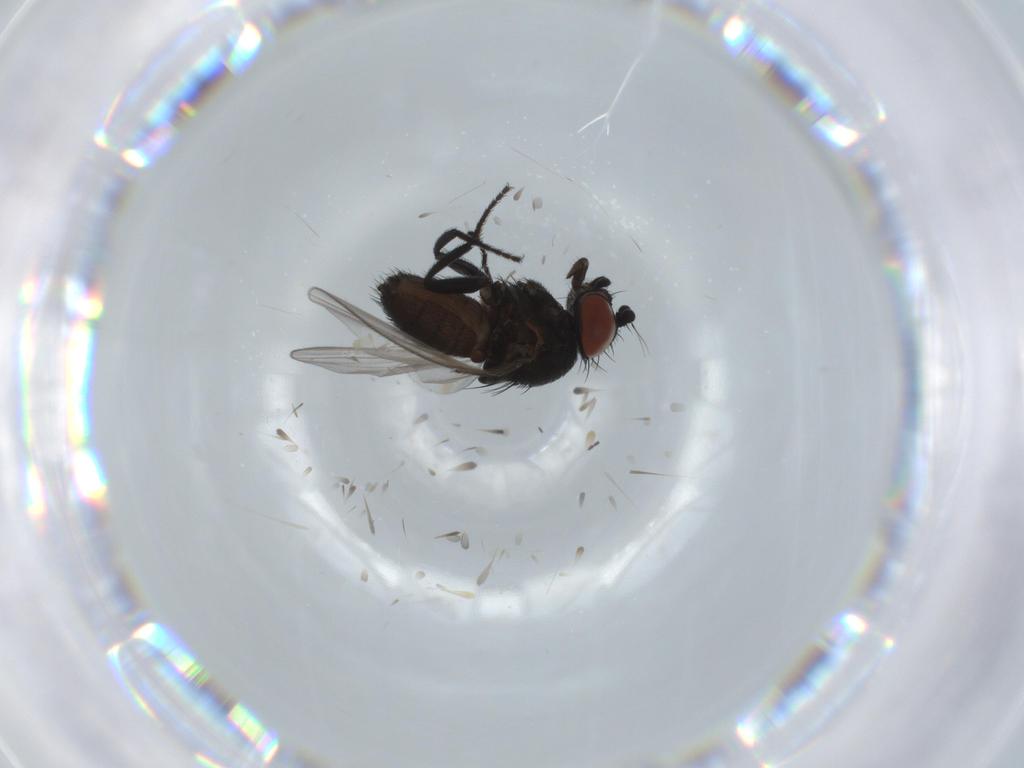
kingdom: Animalia
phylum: Arthropoda
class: Insecta
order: Diptera
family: Milichiidae
